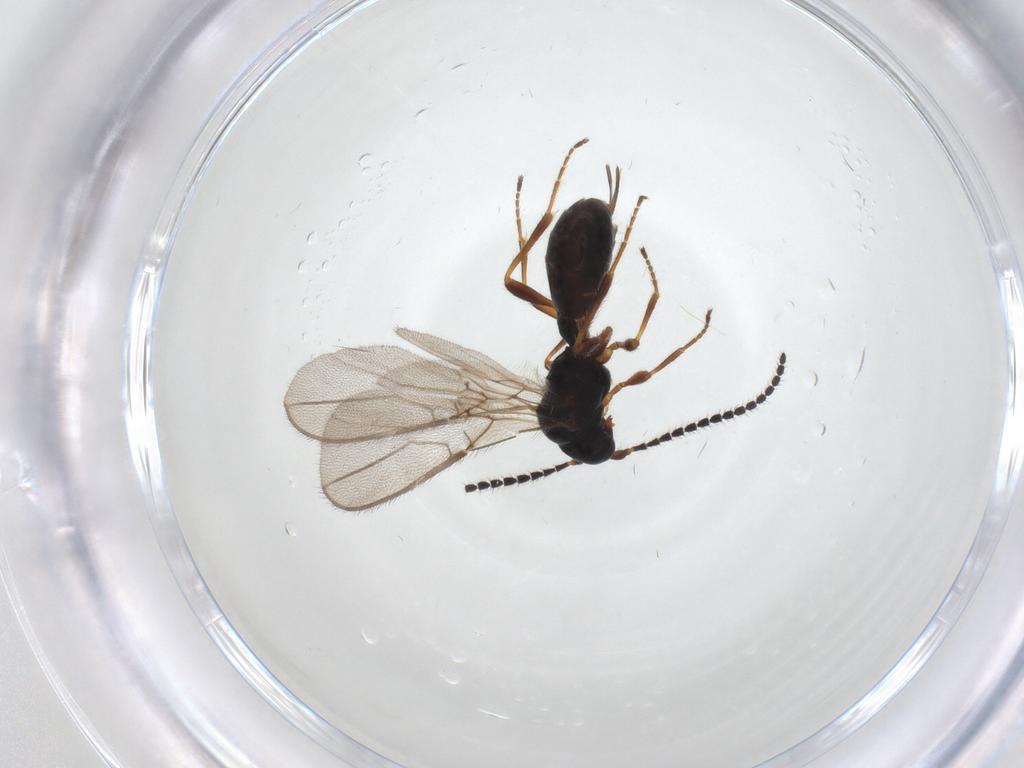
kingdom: Animalia
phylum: Arthropoda
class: Insecta
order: Hymenoptera
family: Braconidae
